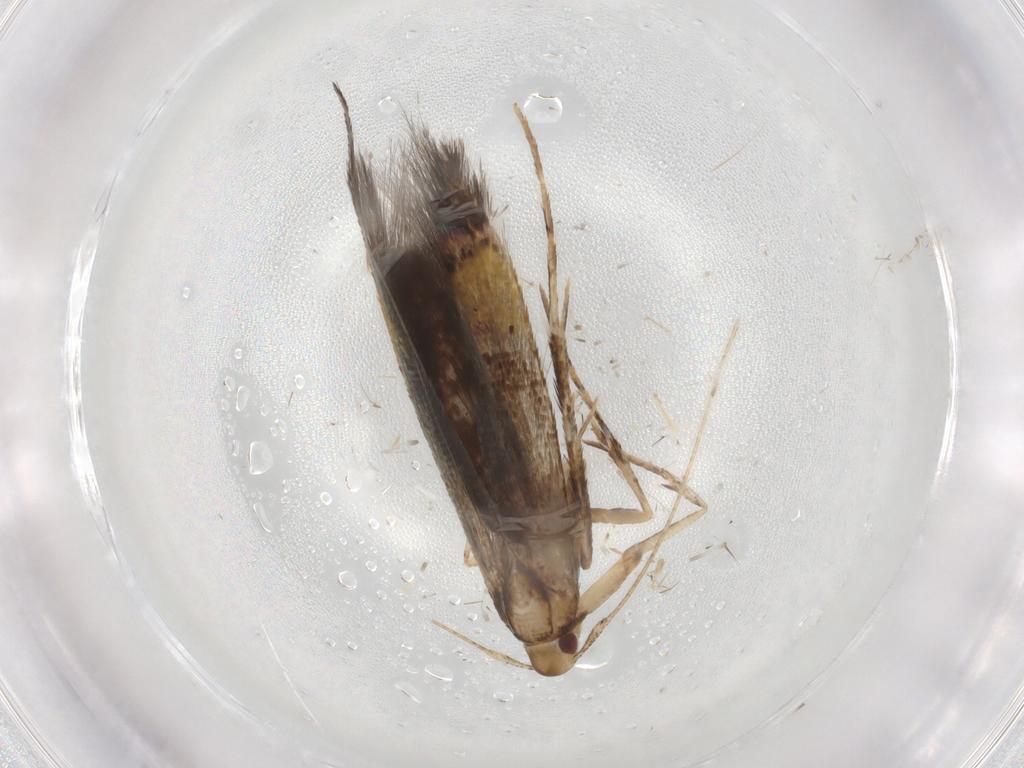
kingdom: Animalia
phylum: Arthropoda
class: Insecta
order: Lepidoptera
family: Cosmopterigidae
